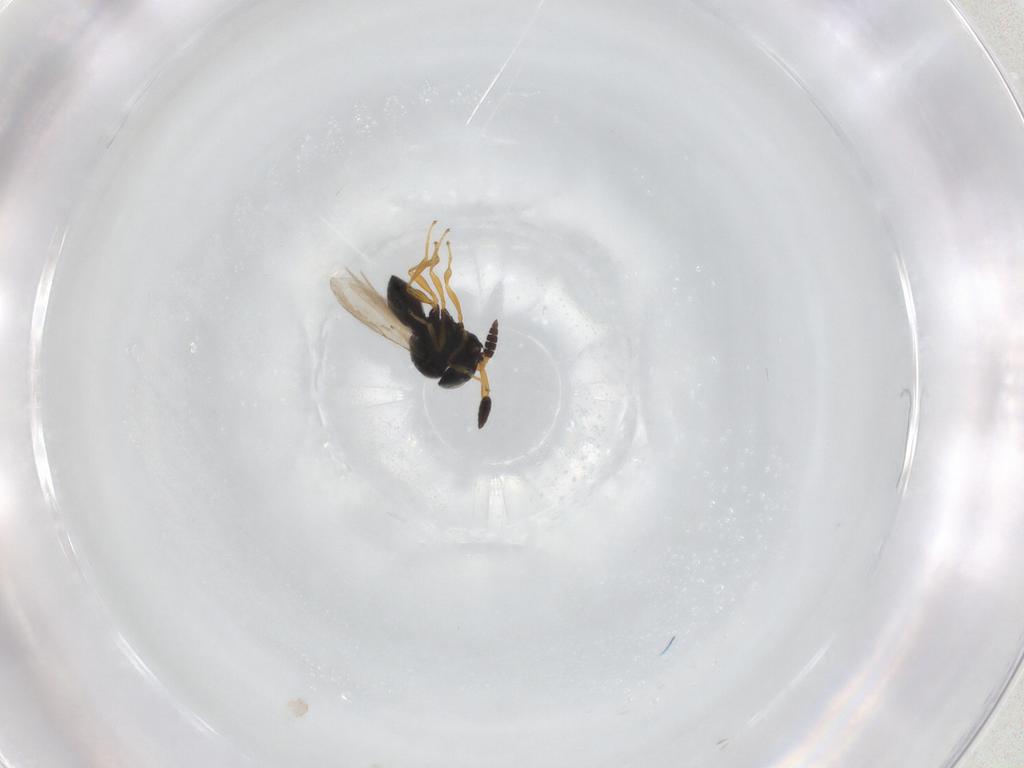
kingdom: Animalia
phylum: Arthropoda
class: Insecta
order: Hymenoptera
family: Scelionidae
